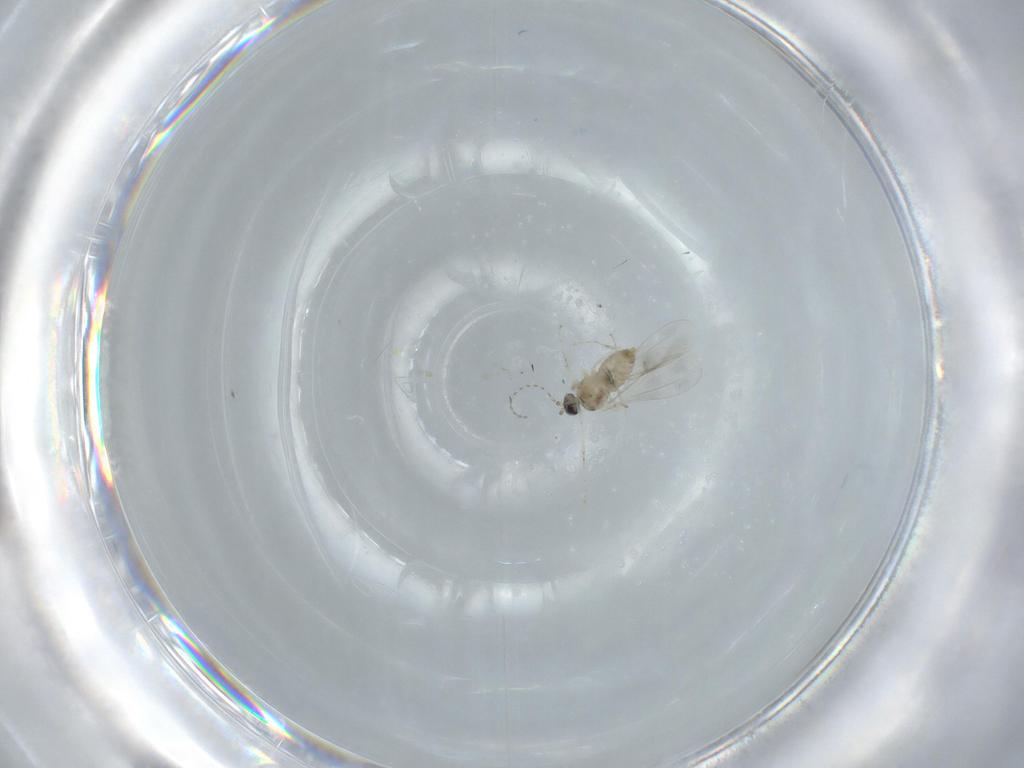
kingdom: Animalia
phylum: Arthropoda
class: Insecta
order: Diptera
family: Cecidomyiidae
